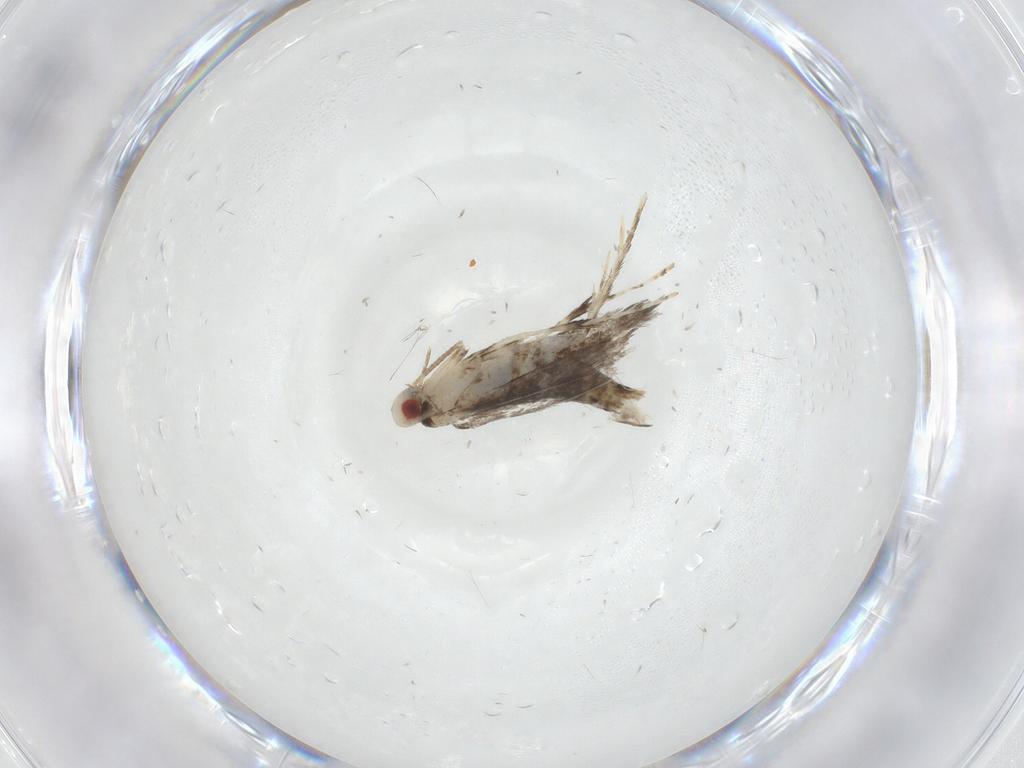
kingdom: Animalia
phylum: Arthropoda
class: Insecta
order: Lepidoptera
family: Gracillariidae
